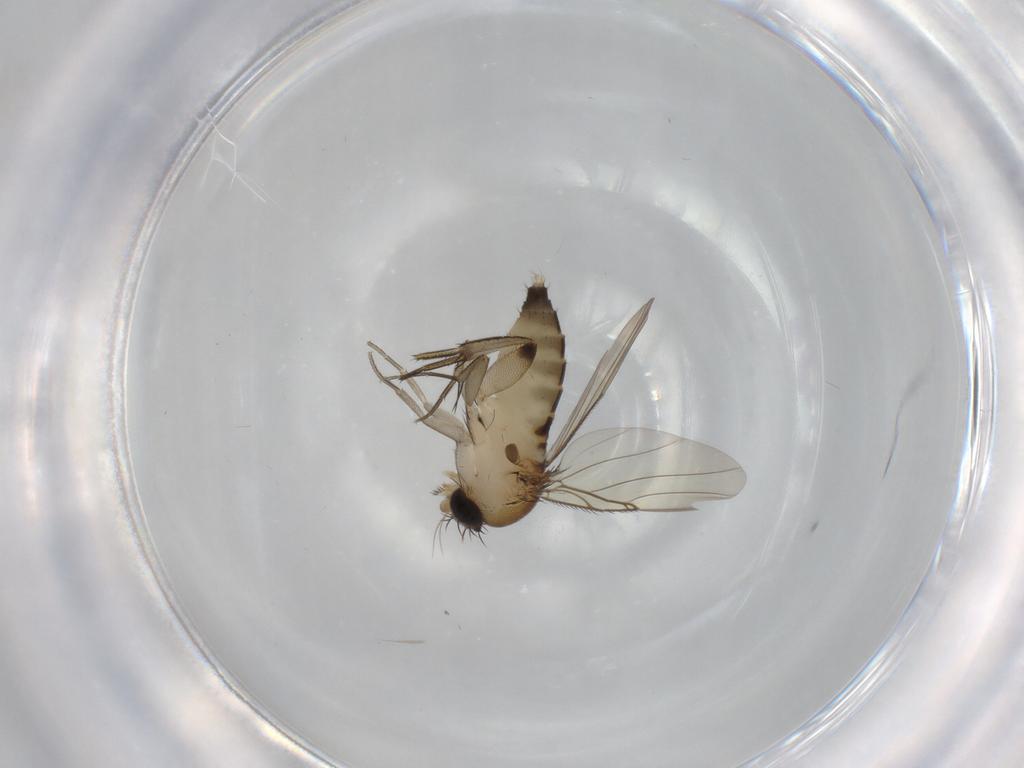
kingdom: Animalia
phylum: Arthropoda
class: Insecta
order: Diptera
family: Phoridae
